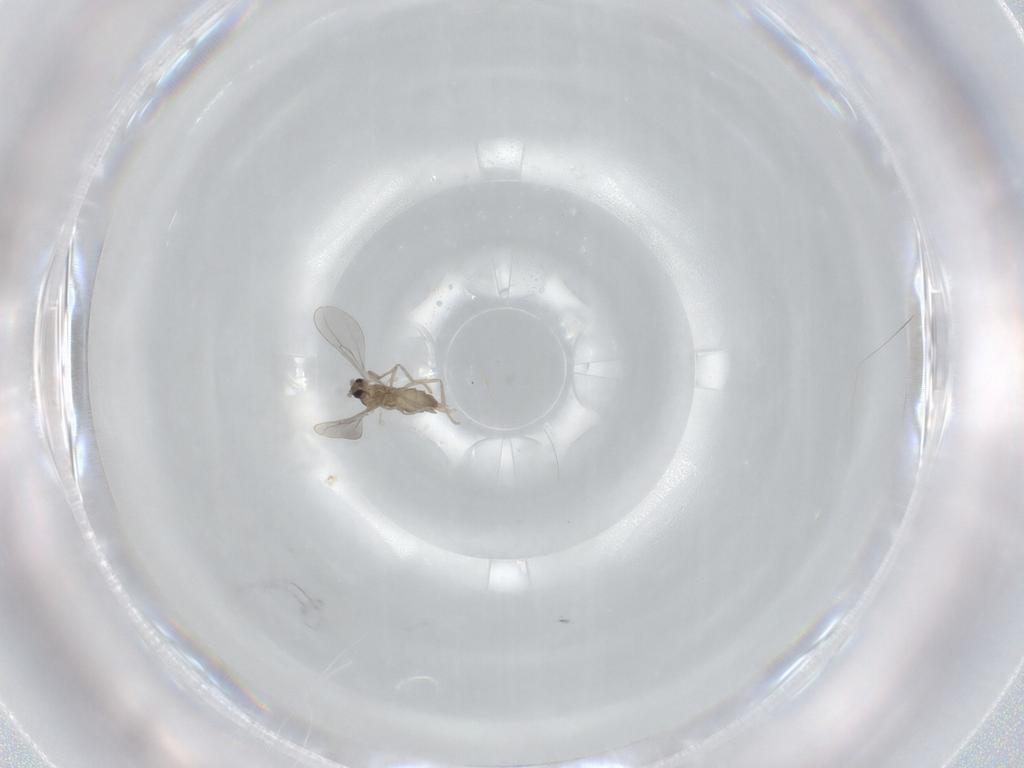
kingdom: Animalia
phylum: Arthropoda
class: Insecta
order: Diptera
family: Cecidomyiidae
